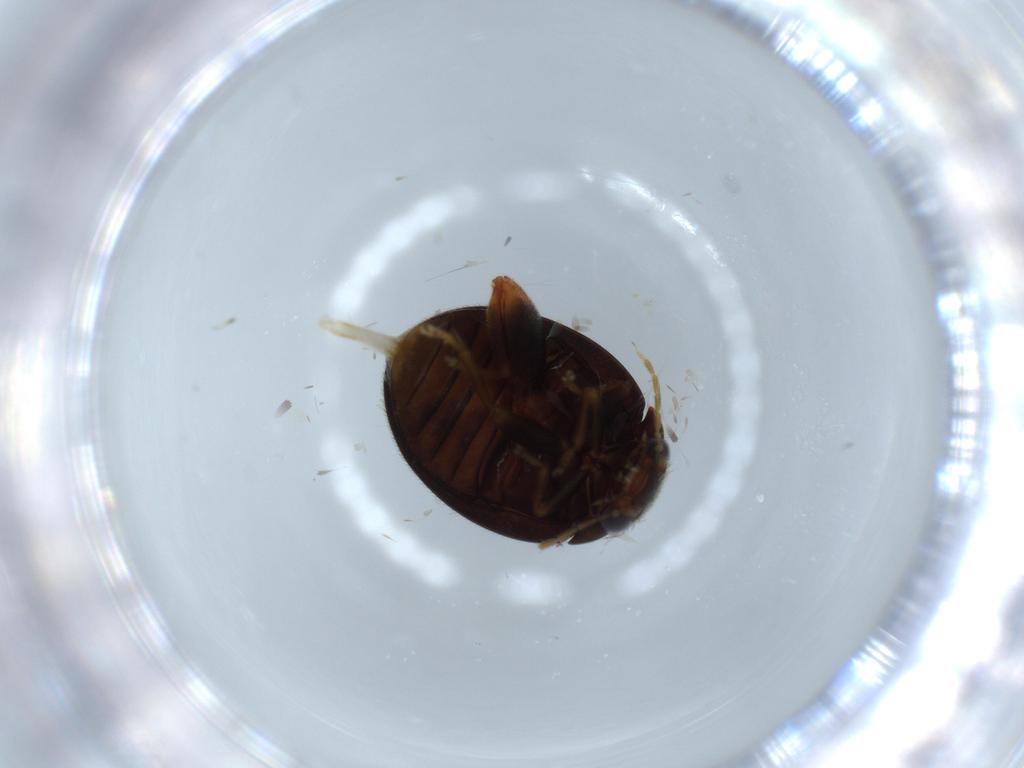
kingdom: Animalia
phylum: Arthropoda
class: Insecta
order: Coleoptera
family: Scirtidae
